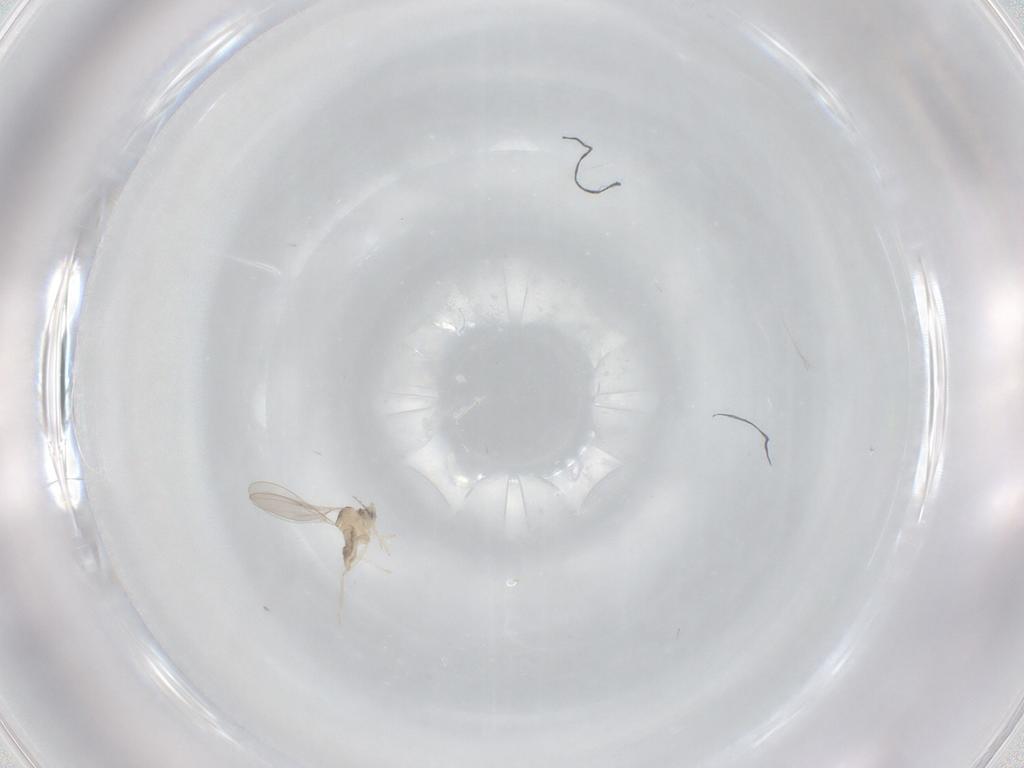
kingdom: Animalia
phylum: Arthropoda
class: Insecta
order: Diptera
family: Cecidomyiidae
